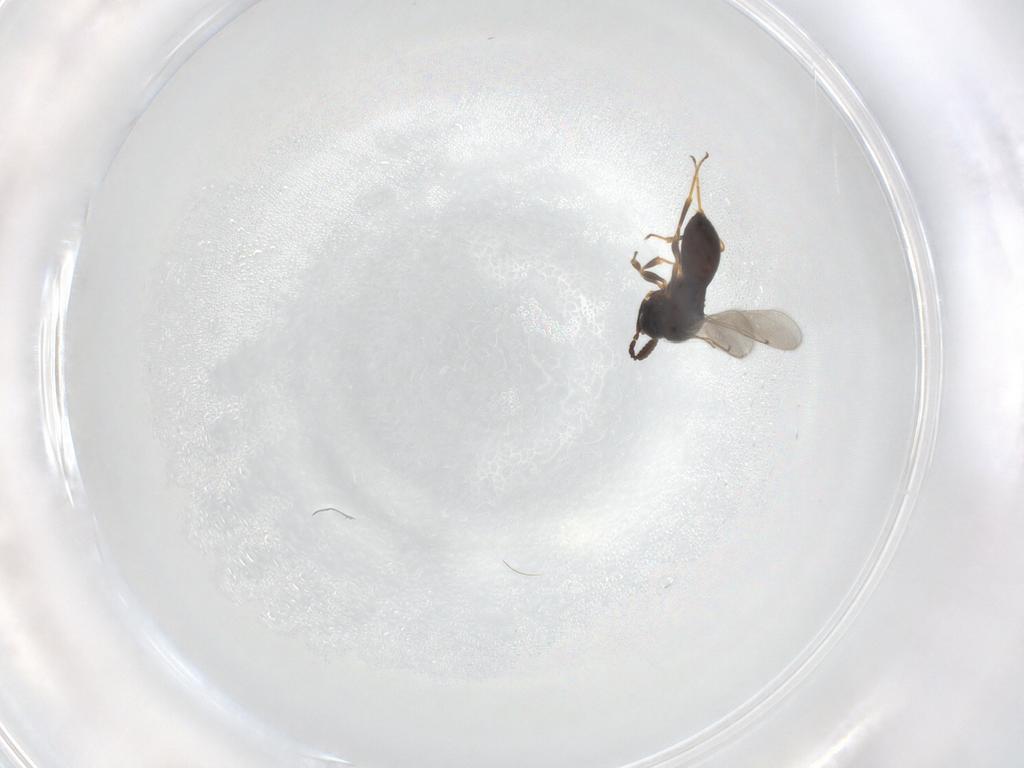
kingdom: Animalia
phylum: Arthropoda
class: Insecta
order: Hymenoptera
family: Scelionidae
